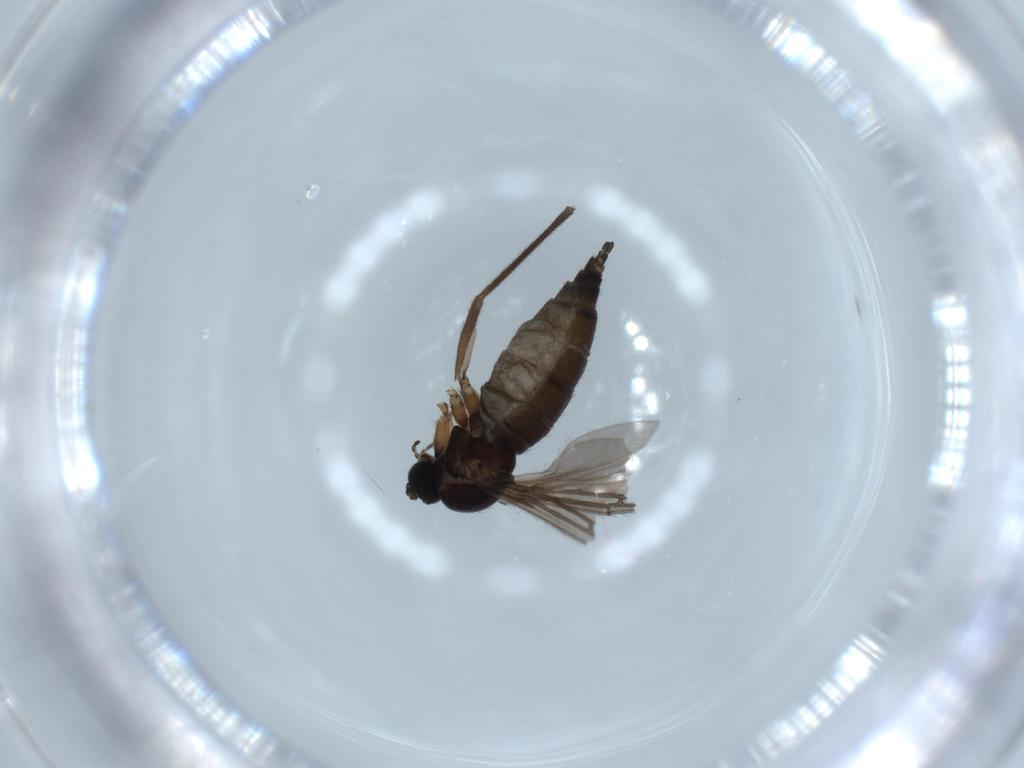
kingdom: Animalia
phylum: Arthropoda
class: Insecta
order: Diptera
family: Sciaridae
